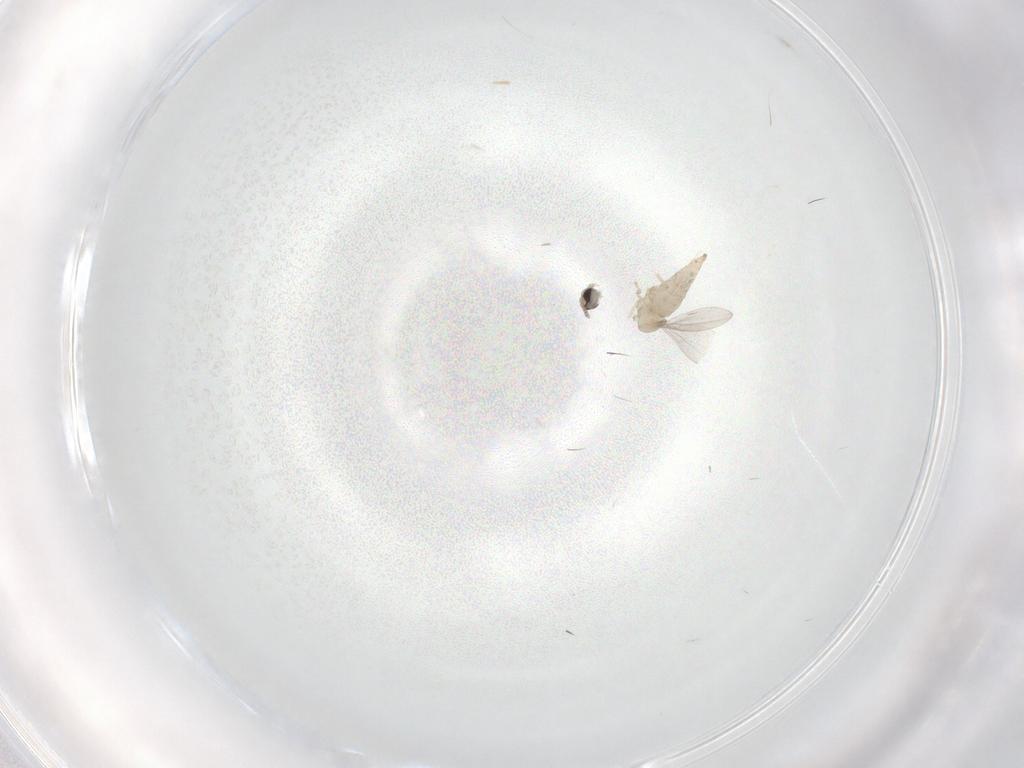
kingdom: Animalia
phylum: Arthropoda
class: Insecta
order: Diptera
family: Cecidomyiidae
